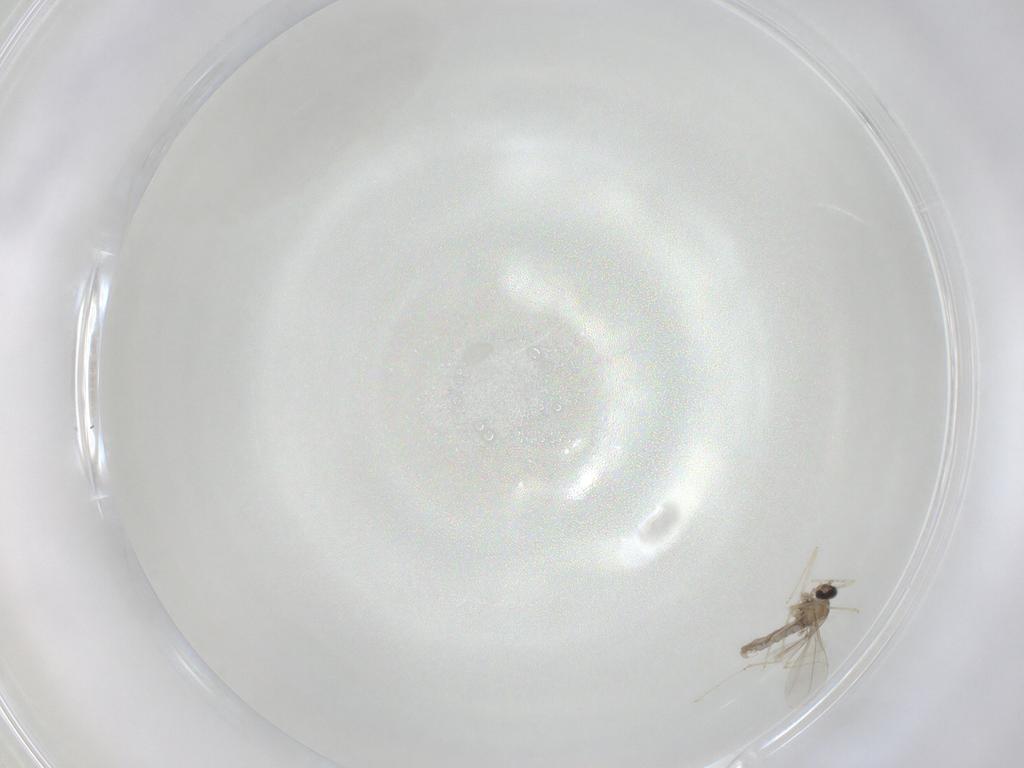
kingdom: Animalia
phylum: Arthropoda
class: Insecta
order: Diptera
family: Cecidomyiidae
